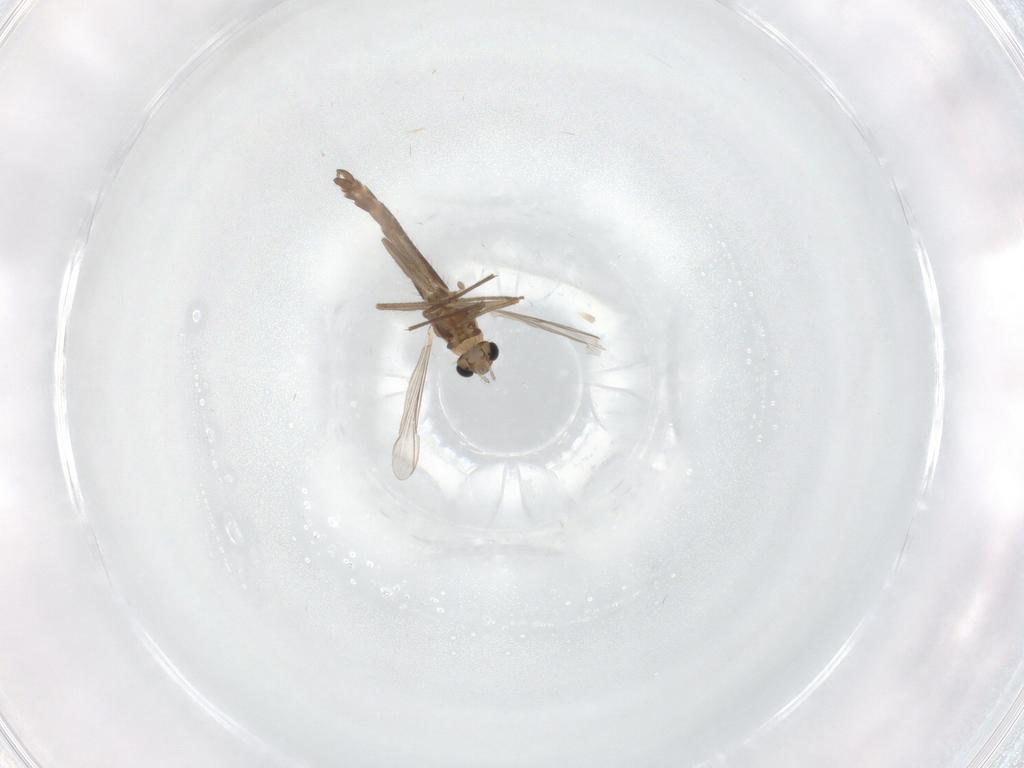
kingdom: Animalia
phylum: Arthropoda
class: Insecta
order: Diptera
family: Chironomidae
